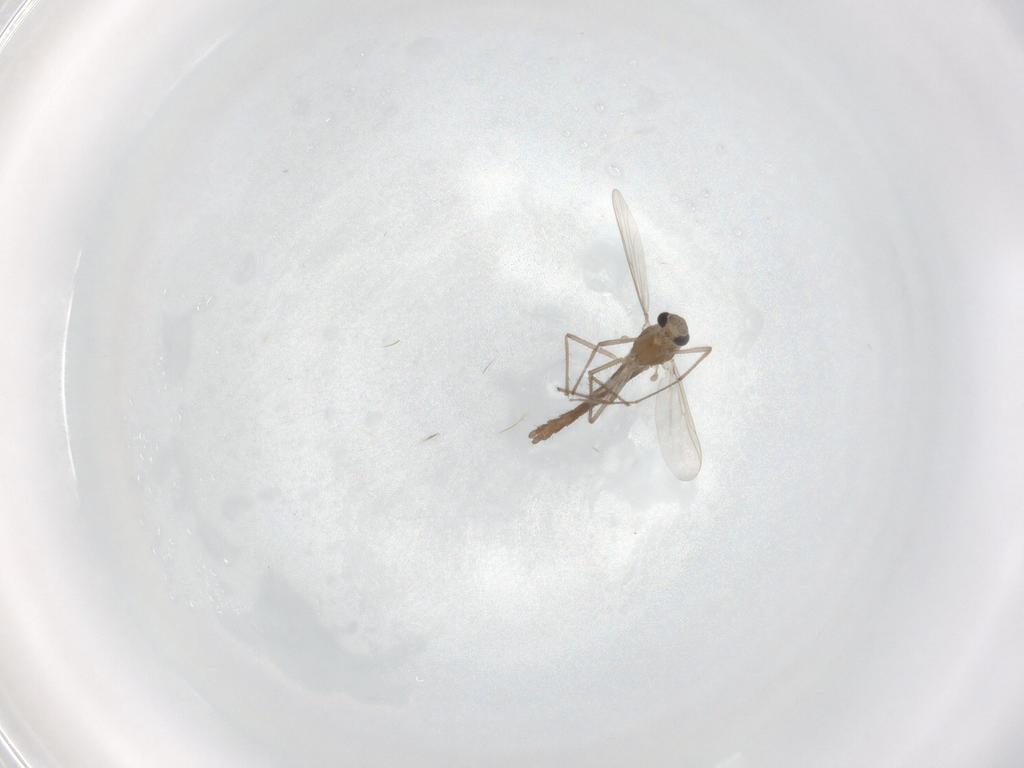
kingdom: Animalia
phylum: Arthropoda
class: Insecta
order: Diptera
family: Chironomidae
